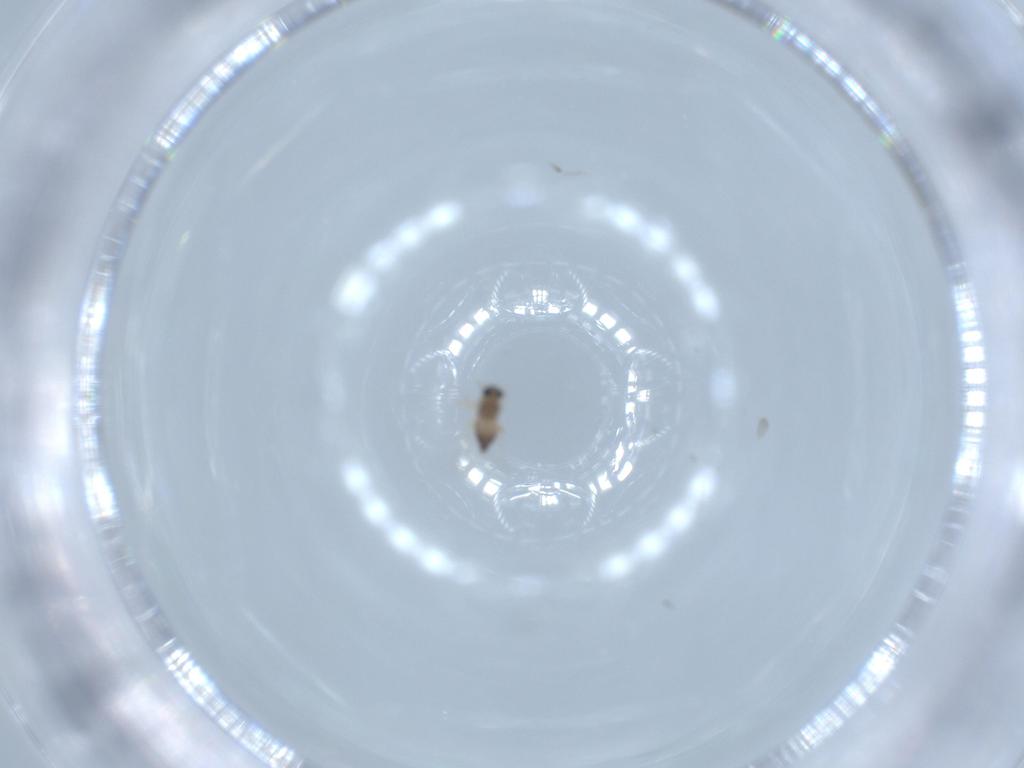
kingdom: Animalia
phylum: Arthropoda
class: Insecta
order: Diptera
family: Chironomidae
